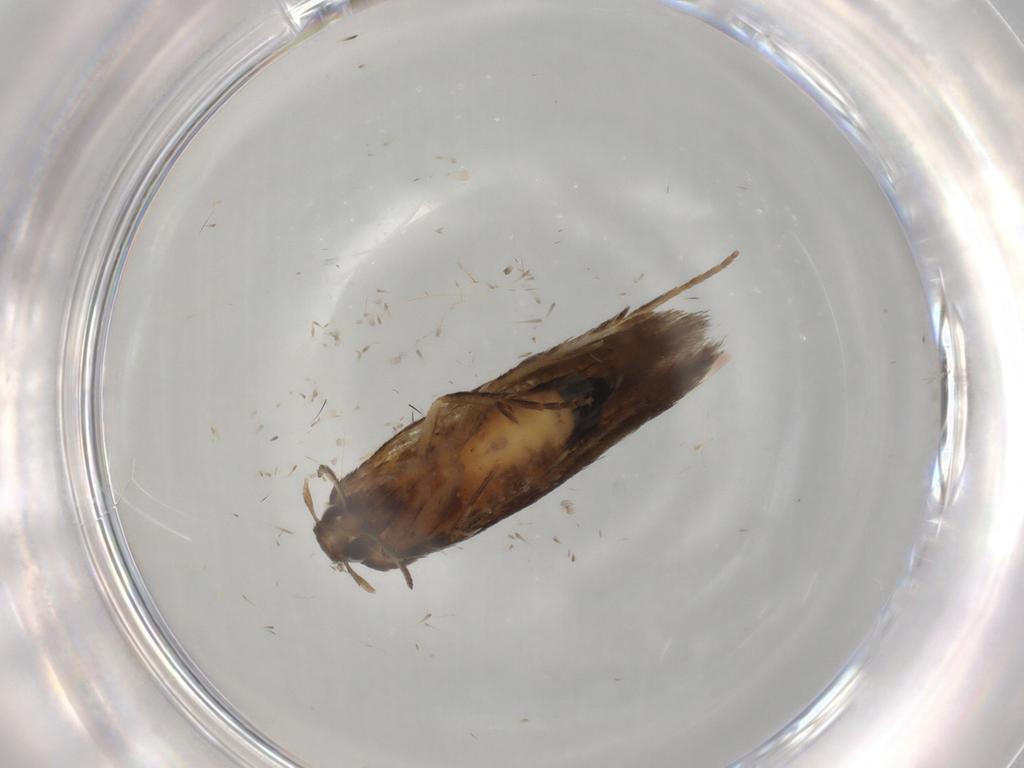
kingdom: Animalia
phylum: Arthropoda
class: Insecta
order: Lepidoptera
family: Cosmopterigidae
